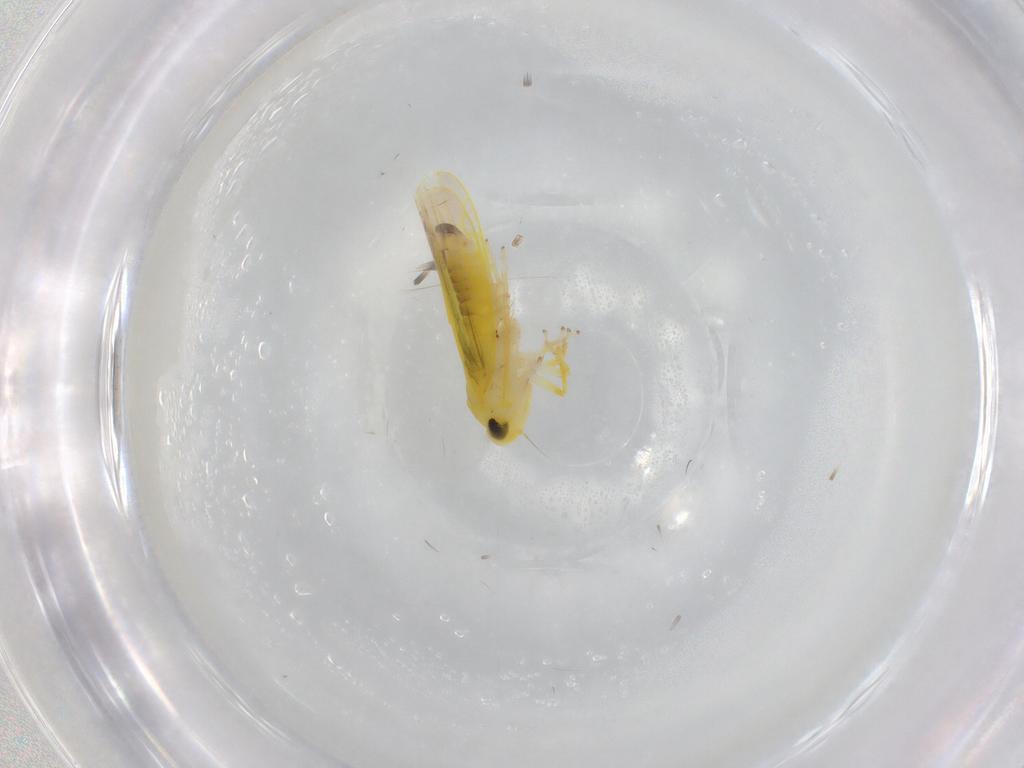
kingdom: Animalia
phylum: Arthropoda
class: Insecta
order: Hemiptera
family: Cicadellidae
